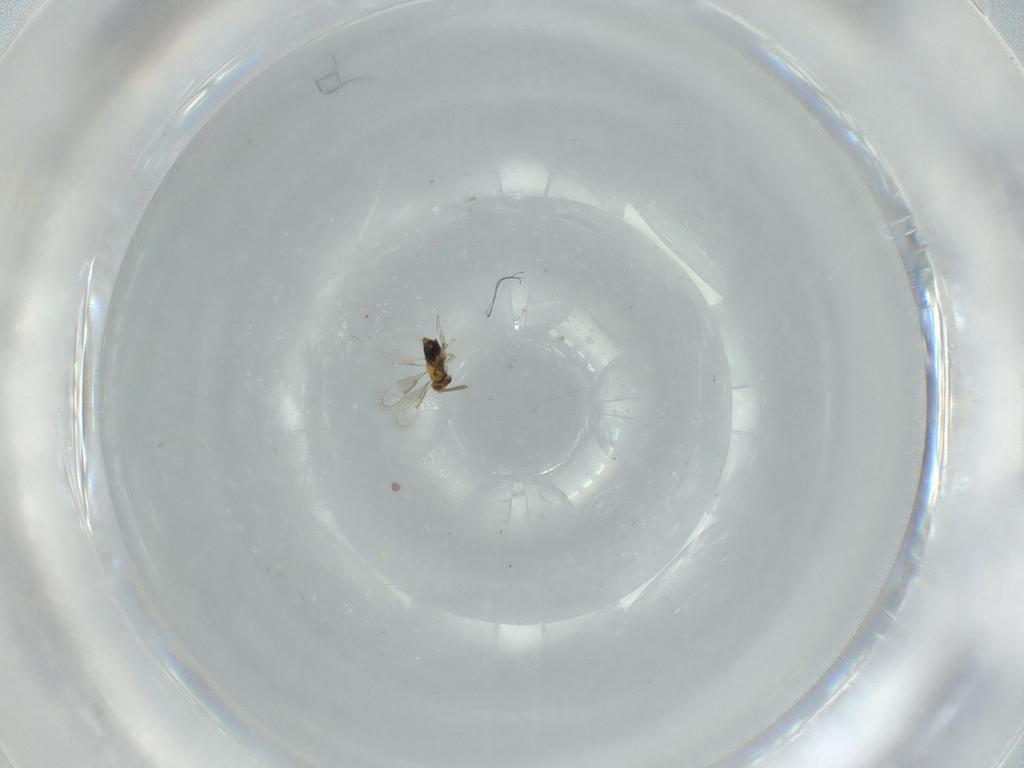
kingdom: Animalia
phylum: Arthropoda
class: Insecta
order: Hymenoptera
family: Aphelinidae
